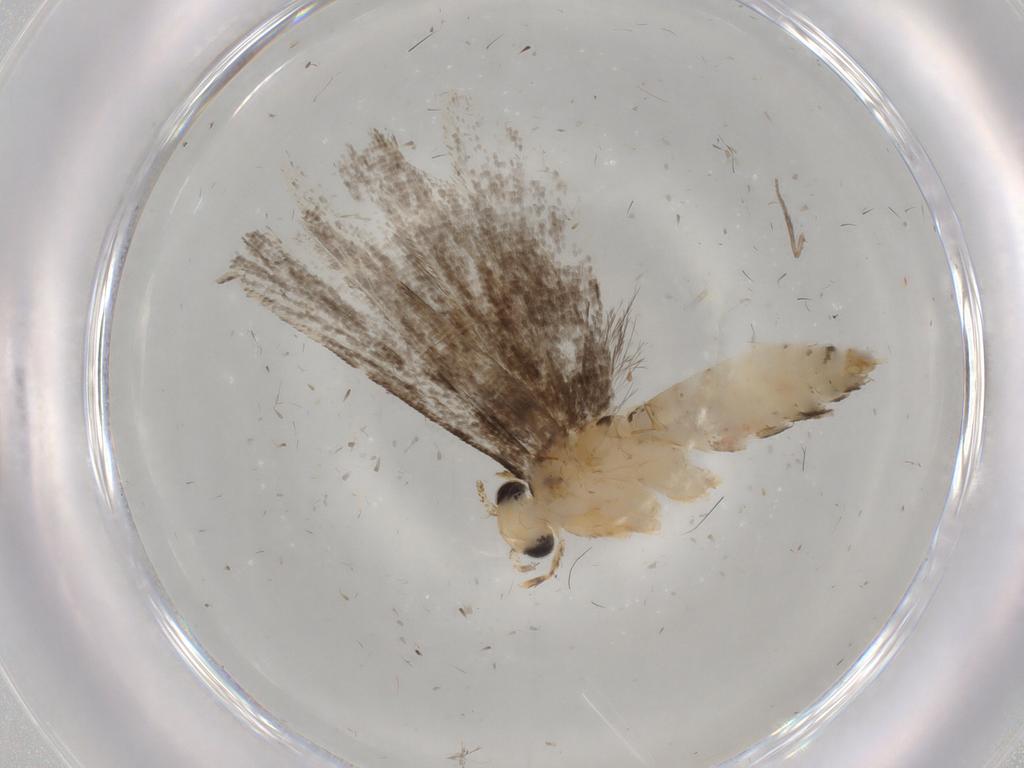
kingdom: Animalia
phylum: Arthropoda
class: Insecta
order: Lepidoptera
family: Tineidae
